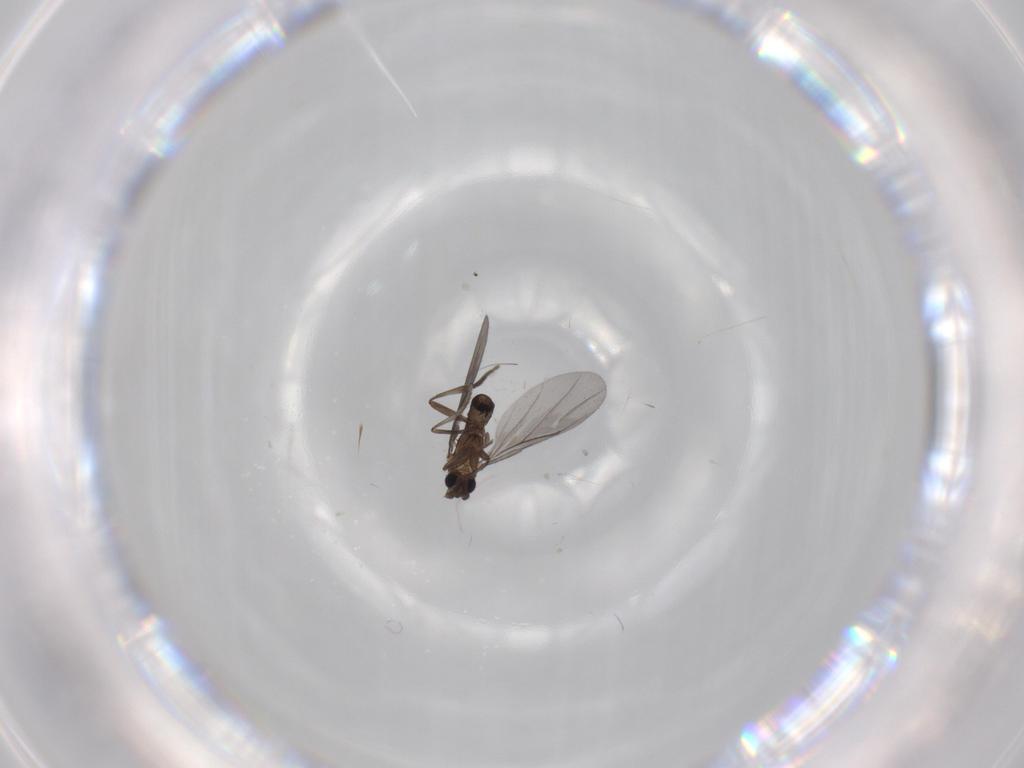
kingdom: Animalia
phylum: Arthropoda
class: Insecta
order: Diptera
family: Phoridae
